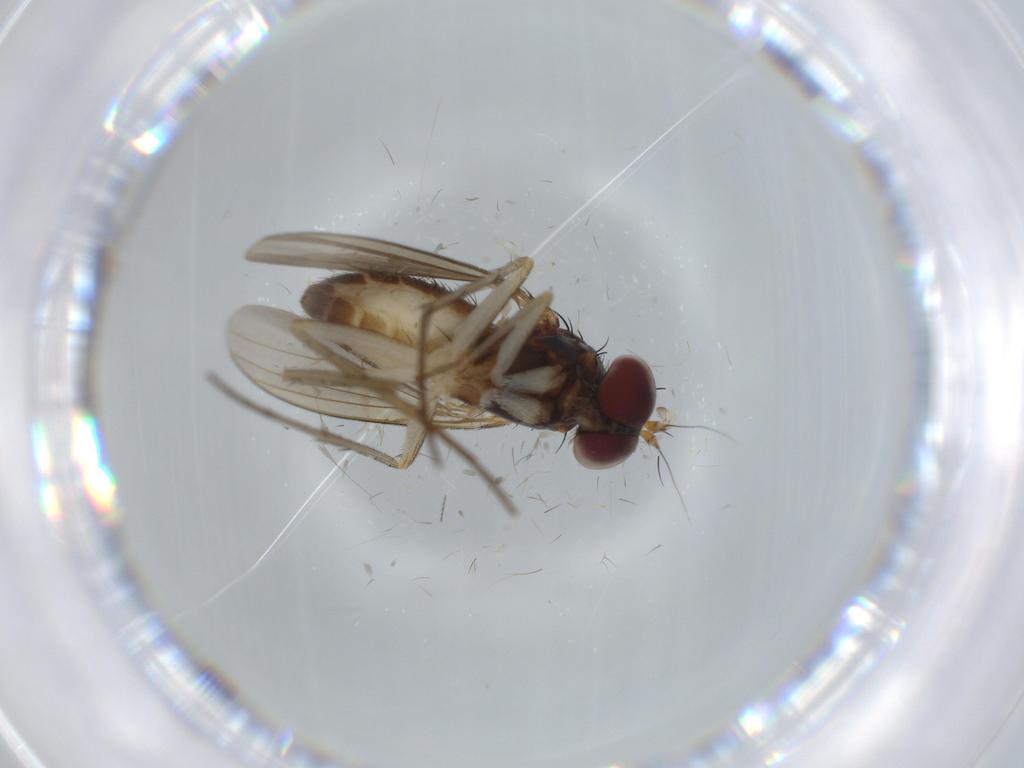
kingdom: Animalia
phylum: Arthropoda
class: Insecta
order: Diptera
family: Dolichopodidae
